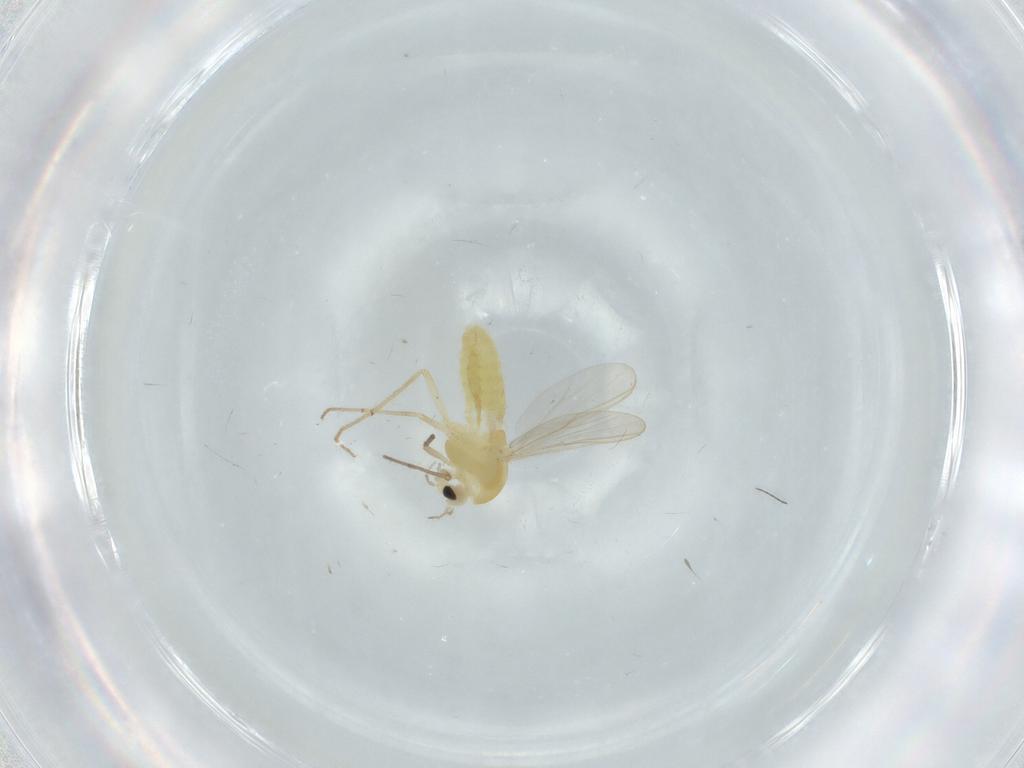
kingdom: Animalia
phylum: Arthropoda
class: Insecta
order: Diptera
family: Chironomidae
